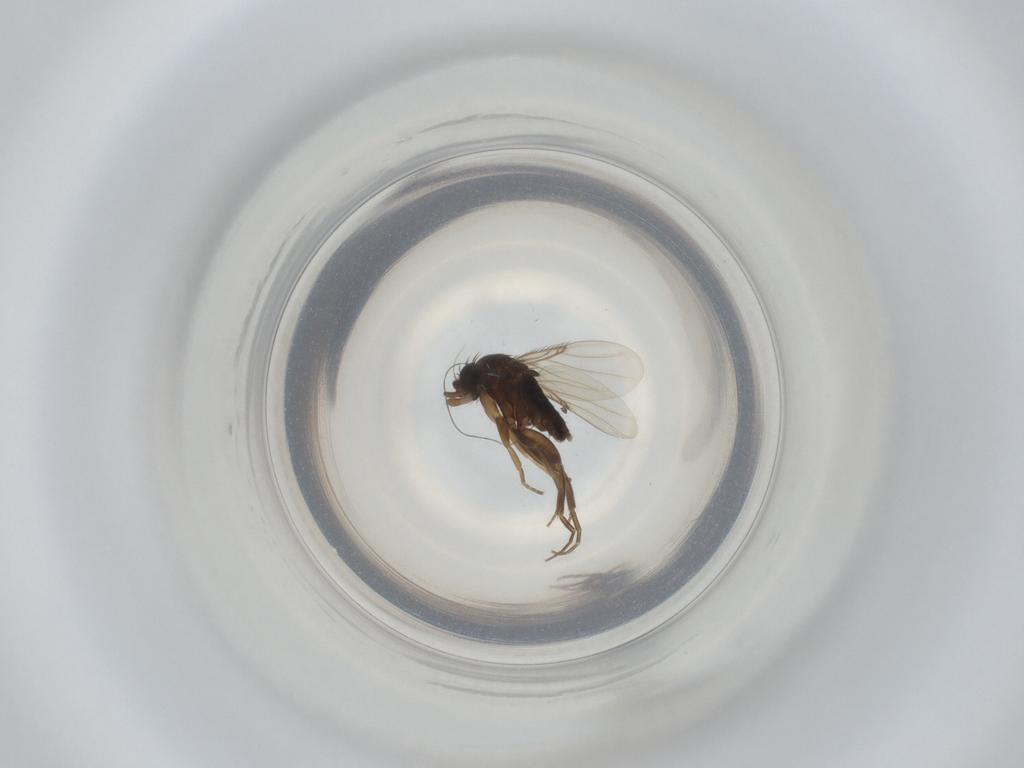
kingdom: Animalia
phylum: Arthropoda
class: Insecta
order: Diptera
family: Phoridae
